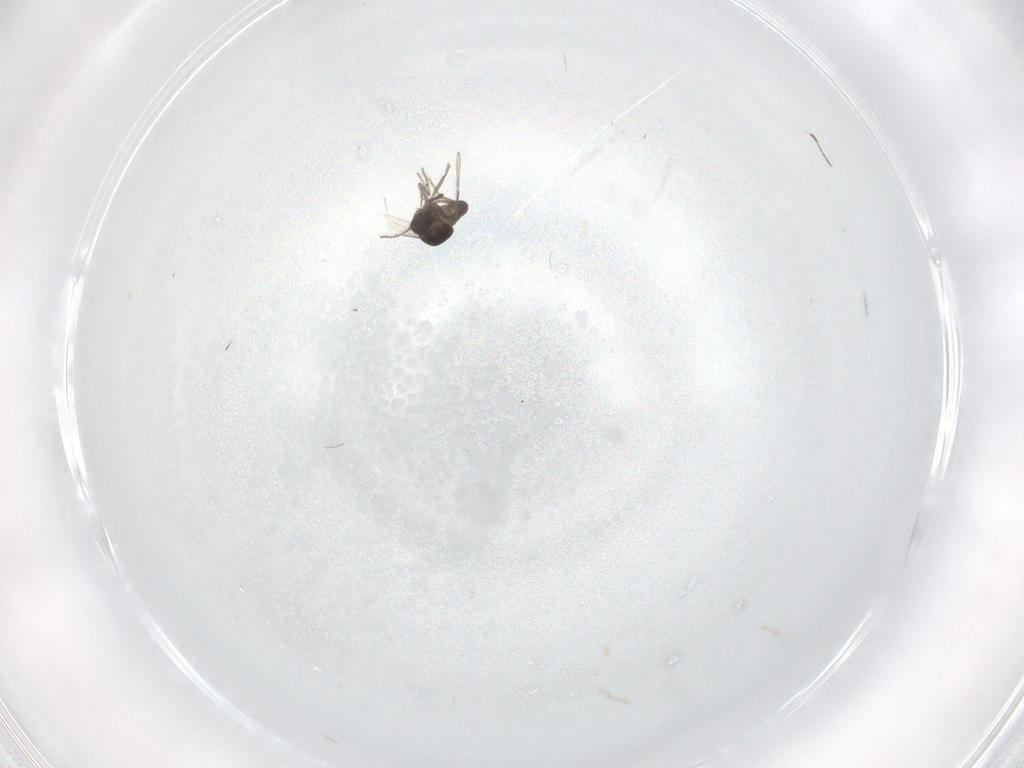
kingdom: Animalia
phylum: Arthropoda
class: Insecta
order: Diptera
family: Ceratopogonidae
